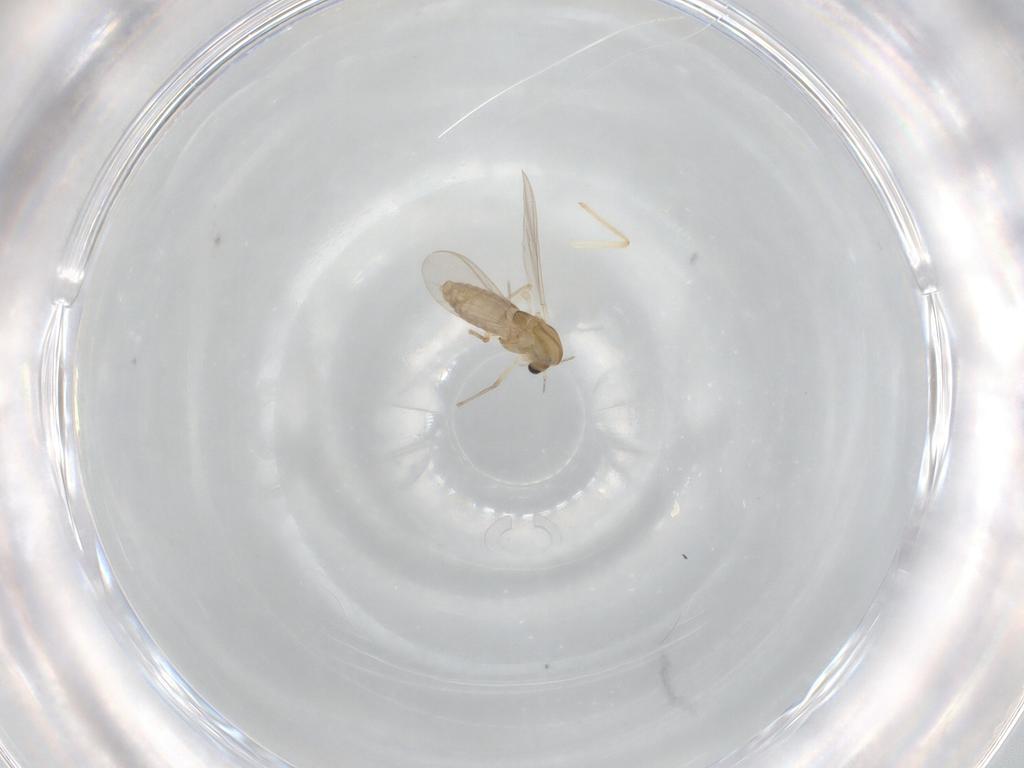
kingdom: Animalia
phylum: Arthropoda
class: Insecta
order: Diptera
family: Chironomidae
